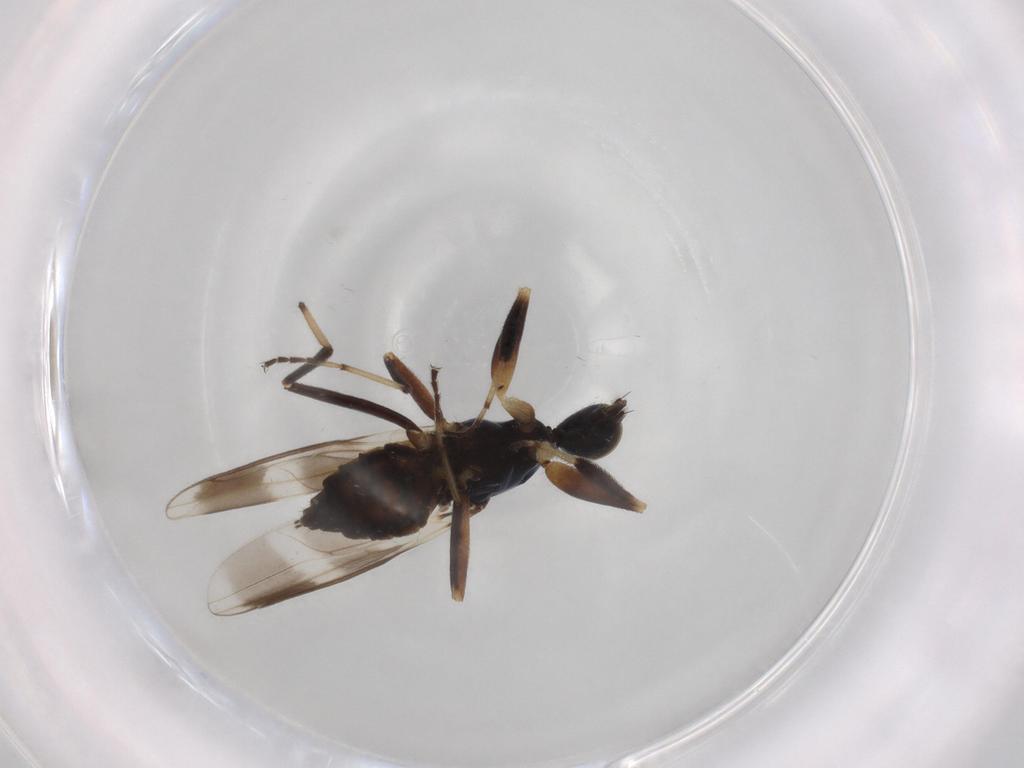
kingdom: Animalia
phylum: Arthropoda
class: Insecta
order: Diptera
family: Hybotidae
